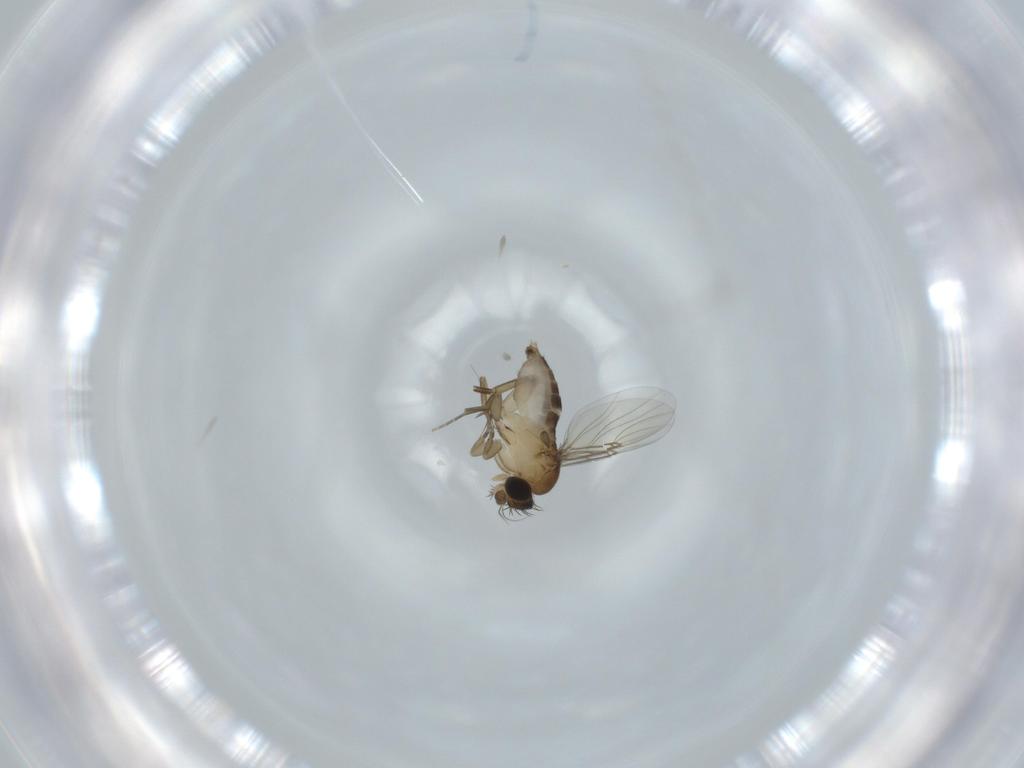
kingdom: Animalia
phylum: Arthropoda
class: Insecta
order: Diptera
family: Phoridae
